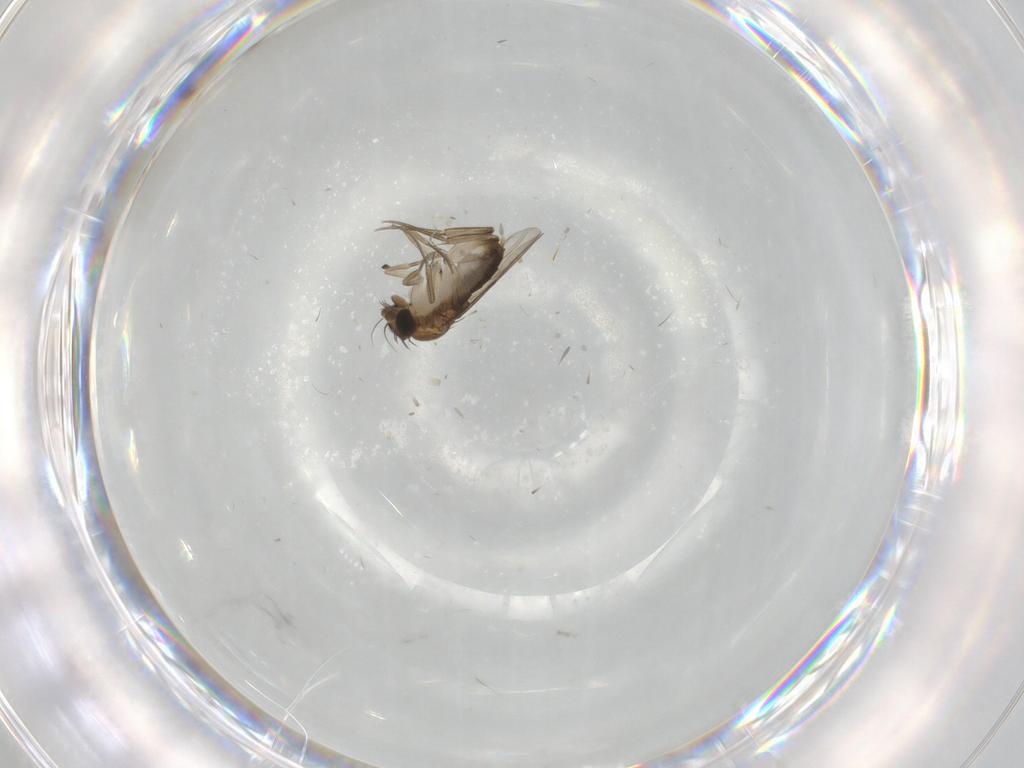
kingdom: Animalia
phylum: Arthropoda
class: Insecta
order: Diptera
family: Phoridae
